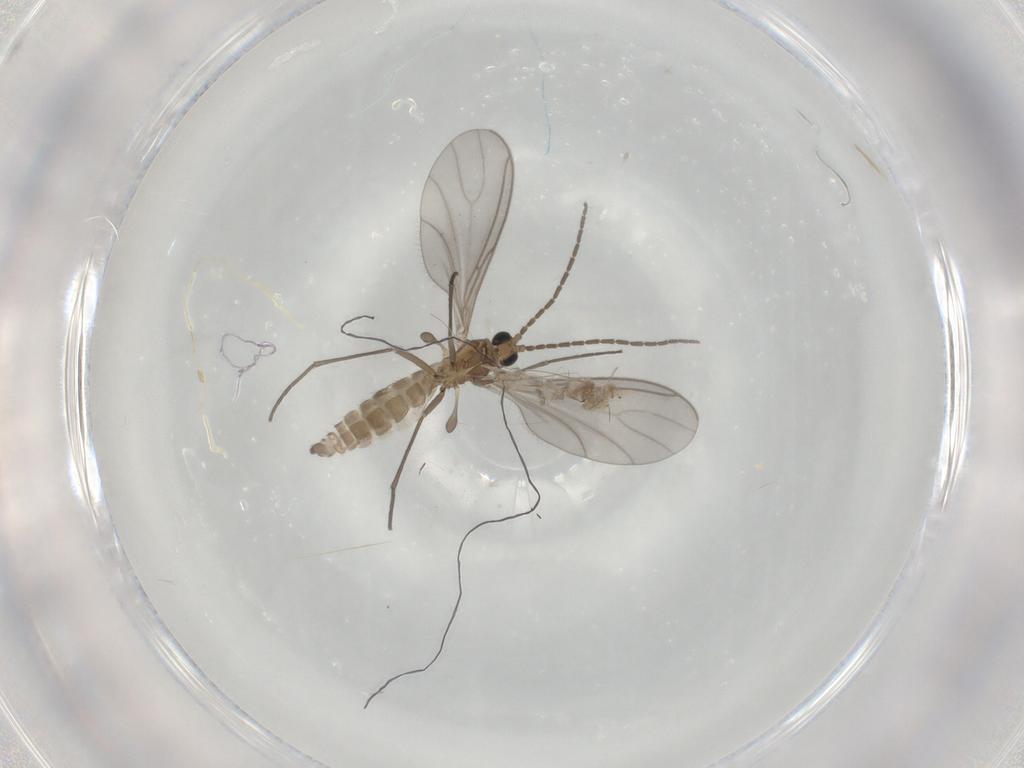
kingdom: Animalia
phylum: Arthropoda
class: Insecta
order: Diptera
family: Sciaridae
